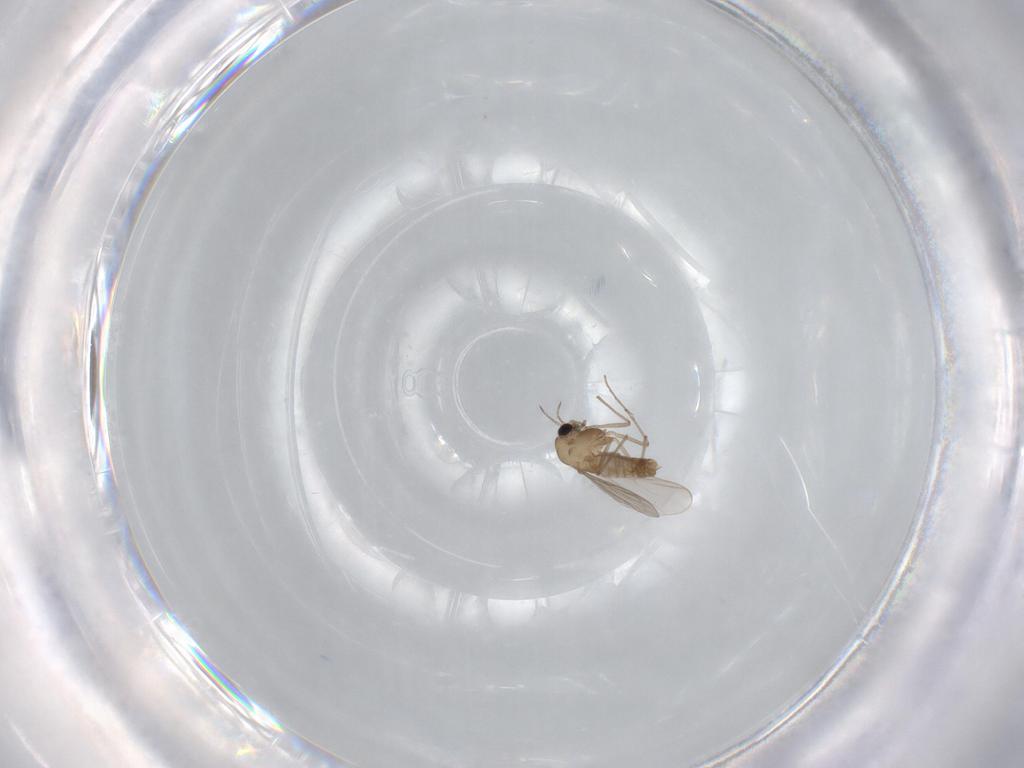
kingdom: Animalia
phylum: Arthropoda
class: Insecta
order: Diptera
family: Chironomidae
